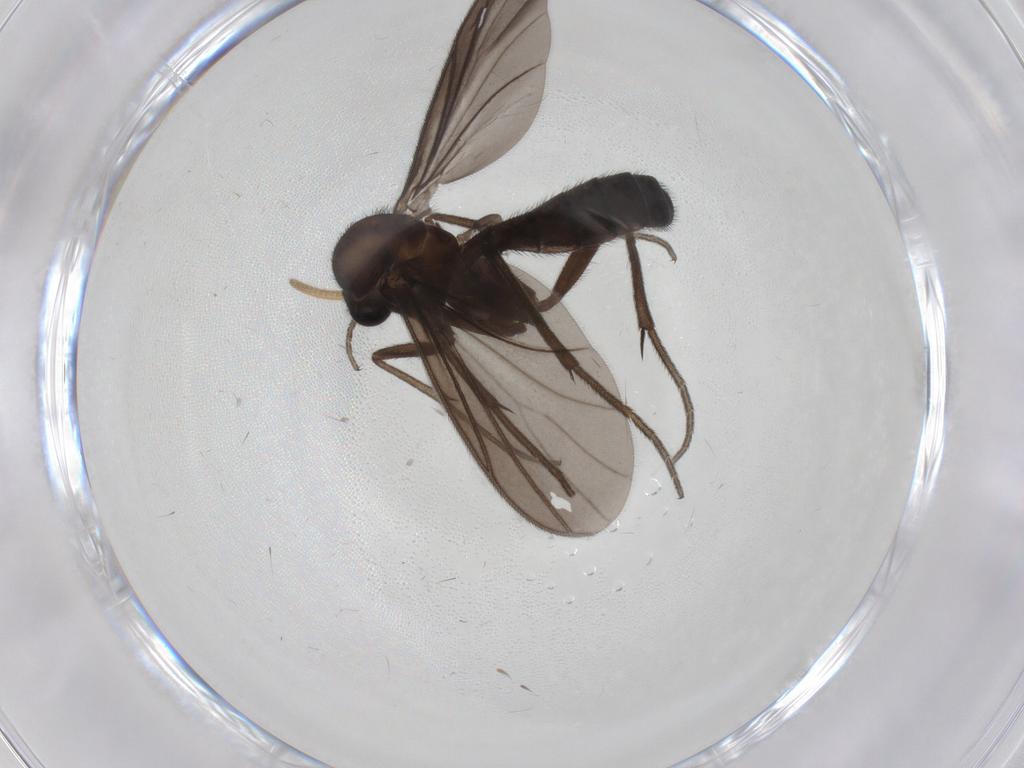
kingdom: Animalia
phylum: Arthropoda
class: Insecta
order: Diptera
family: Mycetophilidae
